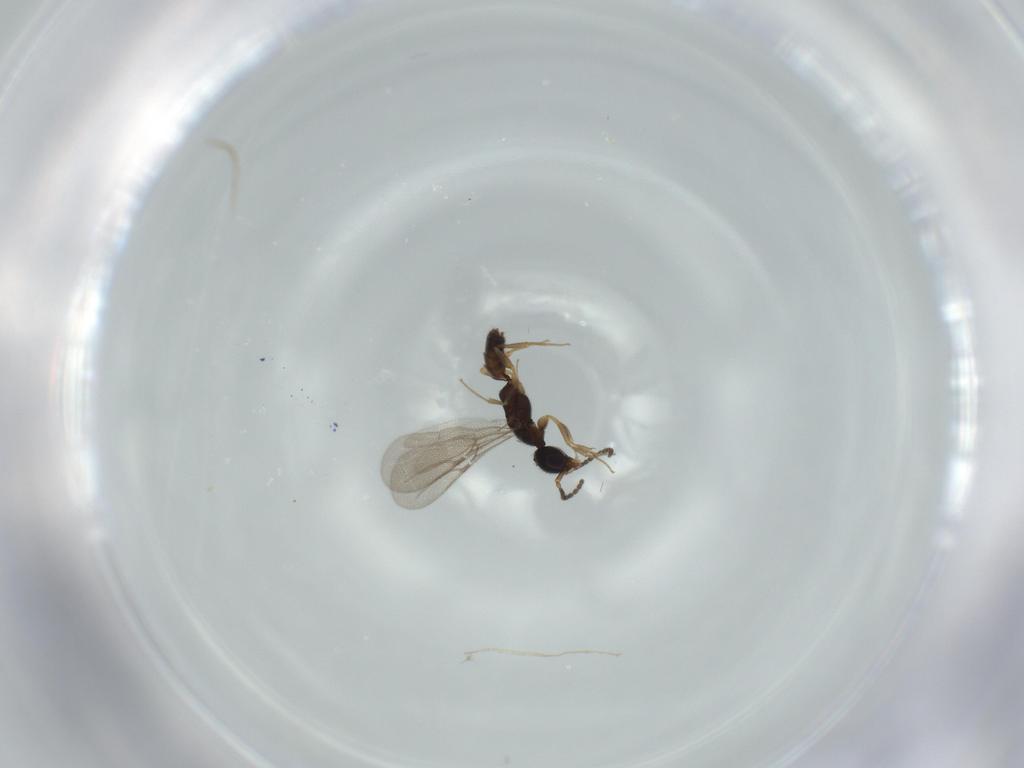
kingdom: Animalia
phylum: Arthropoda
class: Insecta
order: Hymenoptera
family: Bethylidae
